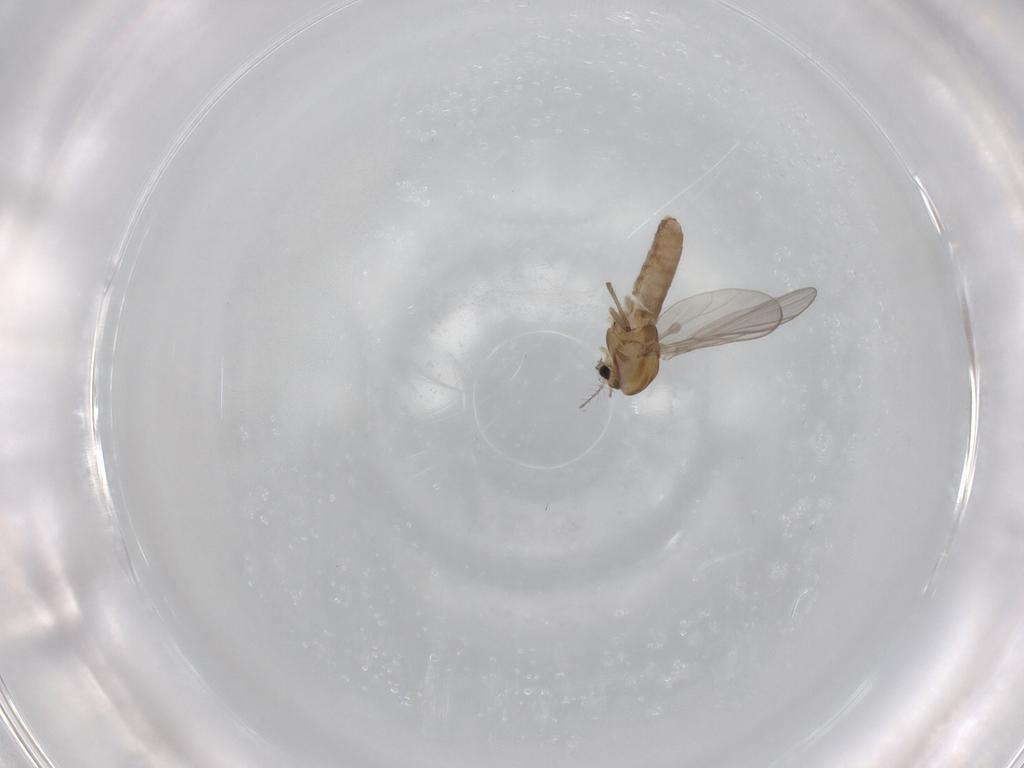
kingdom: Animalia
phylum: Arthropoda
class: Insecta
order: Diptera
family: Chironomidae
